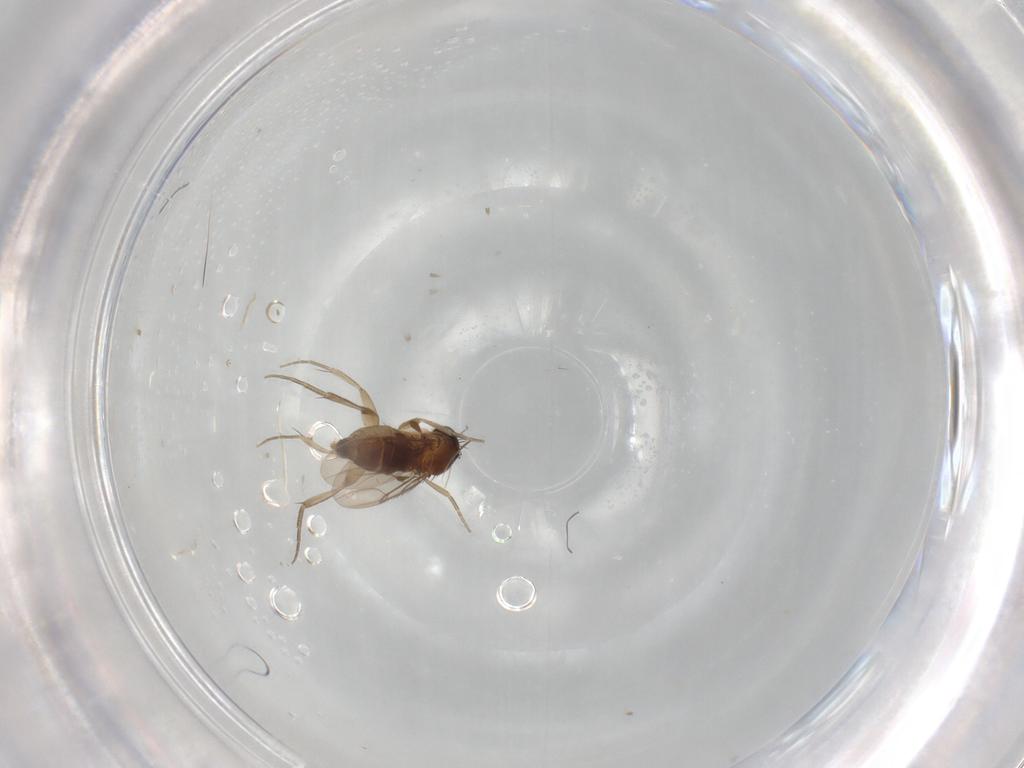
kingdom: Animalia
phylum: Arthropoda
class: Insecta
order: Diptera
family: Phoridae
